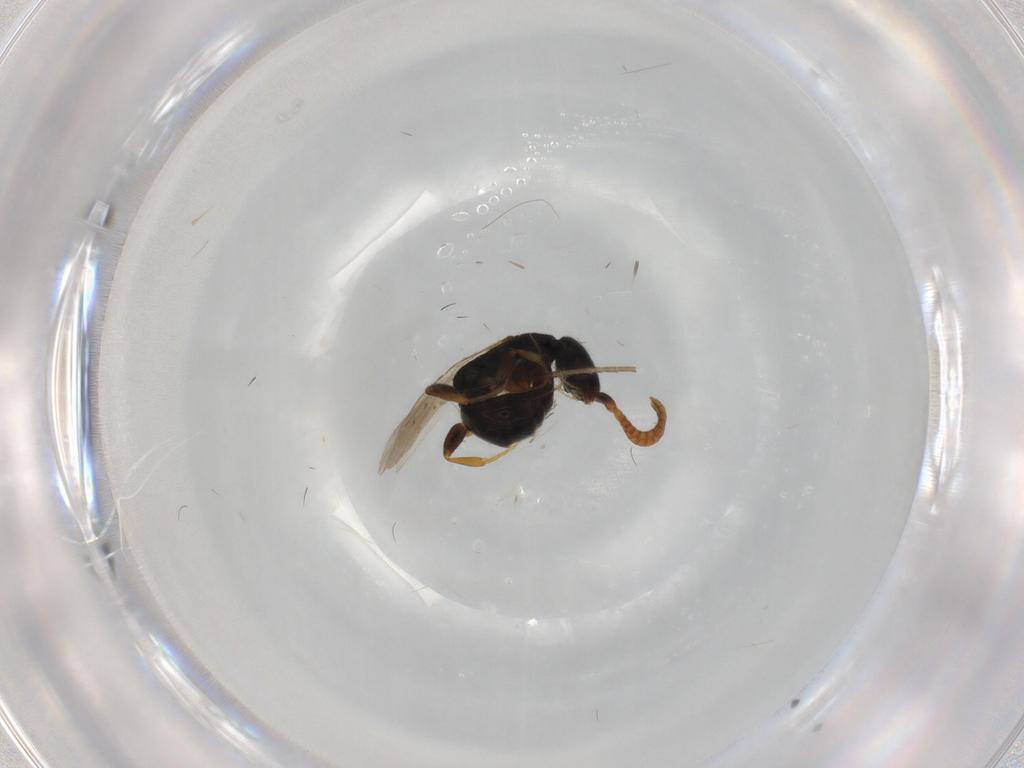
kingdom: Animalia
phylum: Arthropoda
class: Insecta
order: Hymenoptera
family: Bethylidae
